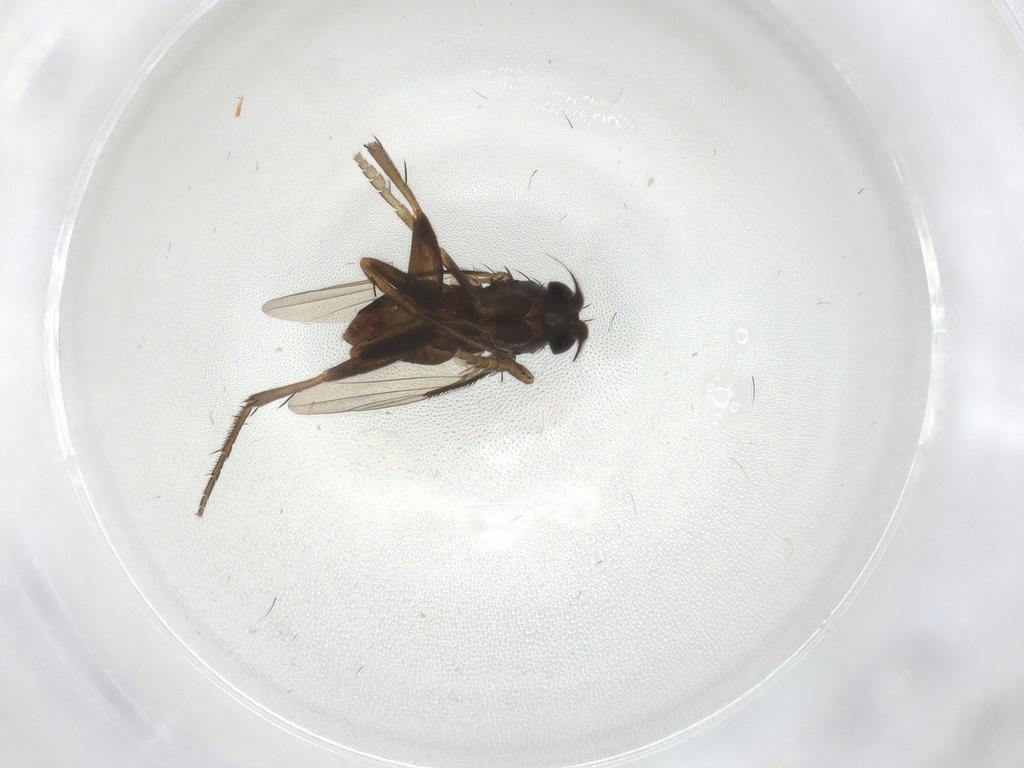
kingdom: Animalia
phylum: Arthropoda
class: Insecta
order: Diptera
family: Phoridae
